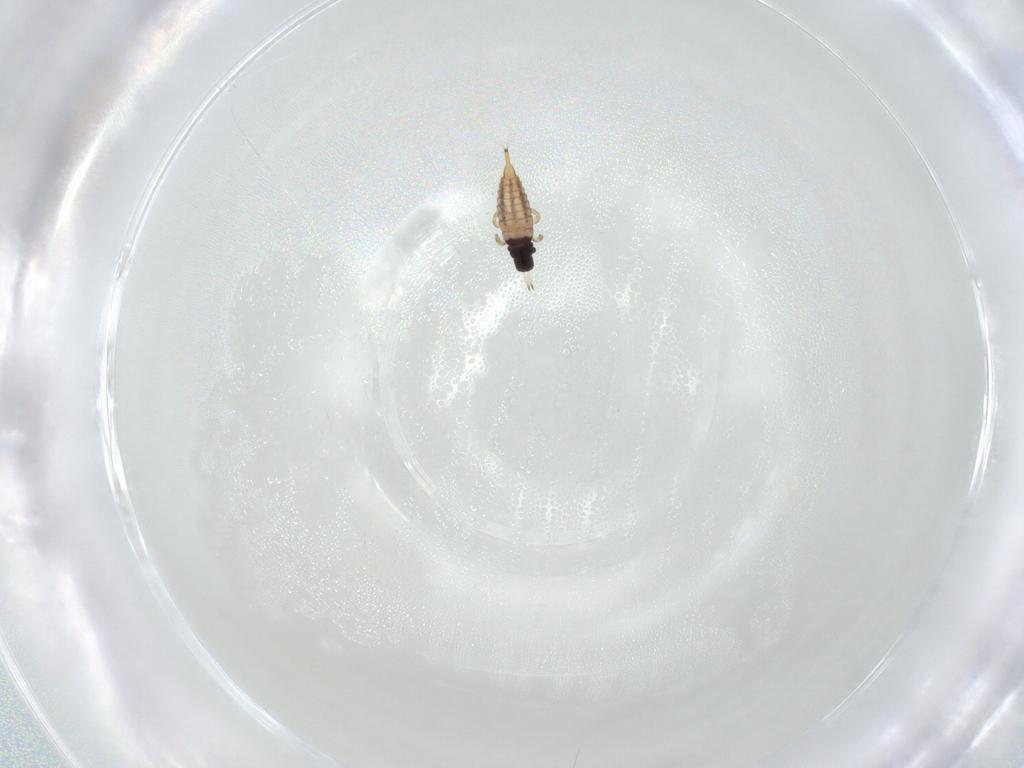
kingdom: Animalia
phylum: Arthropoda
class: Insecta
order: Thysanoptera
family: Phlaeothripidae
